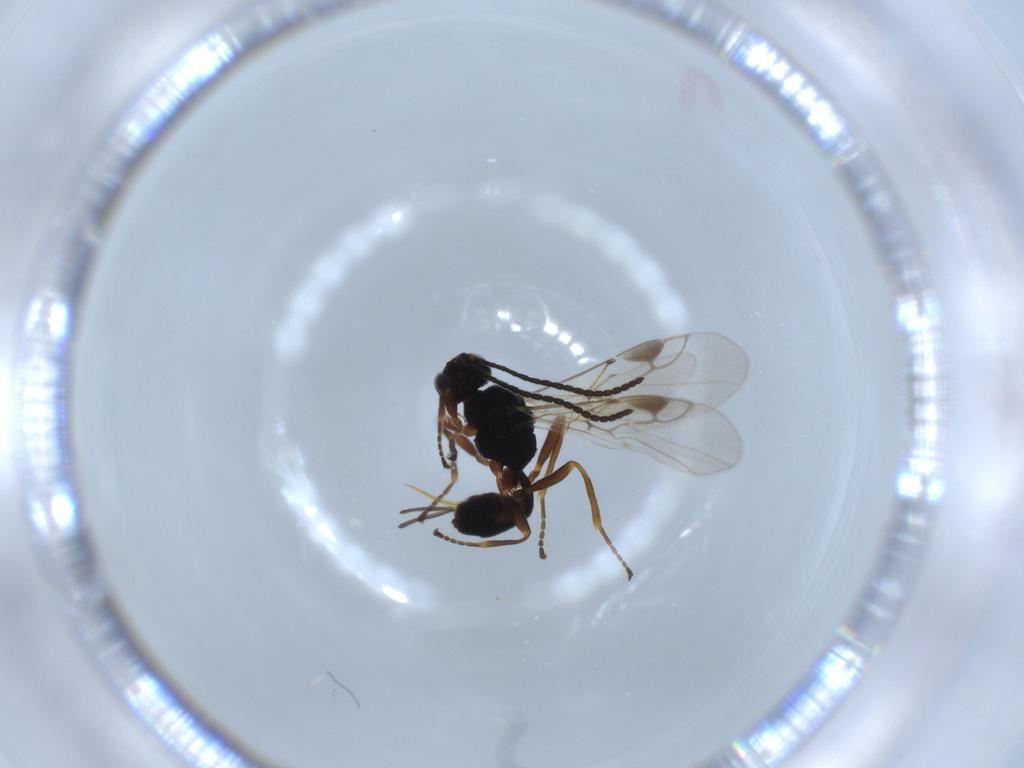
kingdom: Animalia
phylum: Arthropoda
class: Insecta
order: Hymenoptera
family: Braconidae
